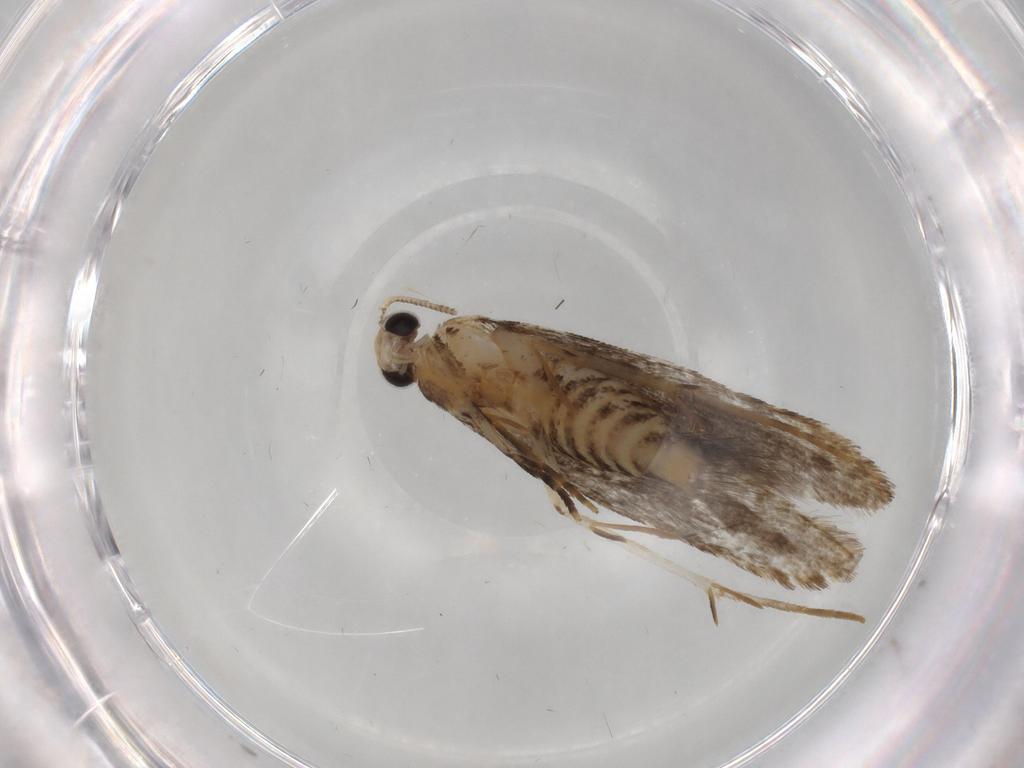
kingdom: Animalia
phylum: Arthropoda
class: Insecta
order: Lepidoptera
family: Tineidae
